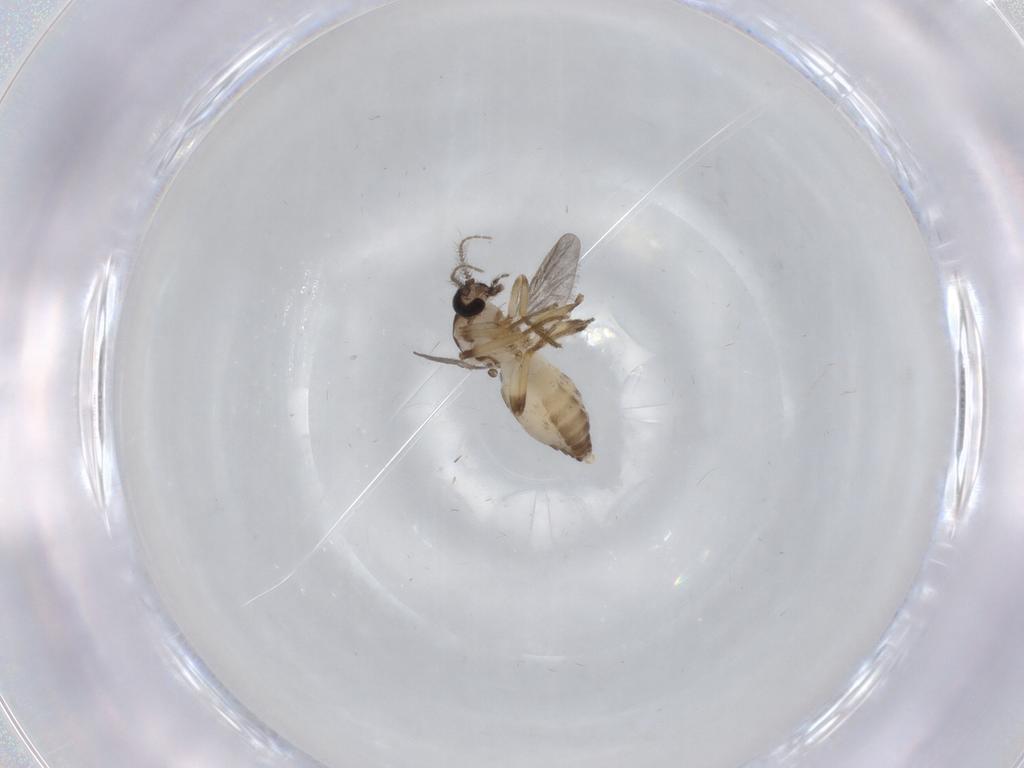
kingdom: Animalia
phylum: Arthropoda
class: Insecta
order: Diptera
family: Ceratopogonidae
